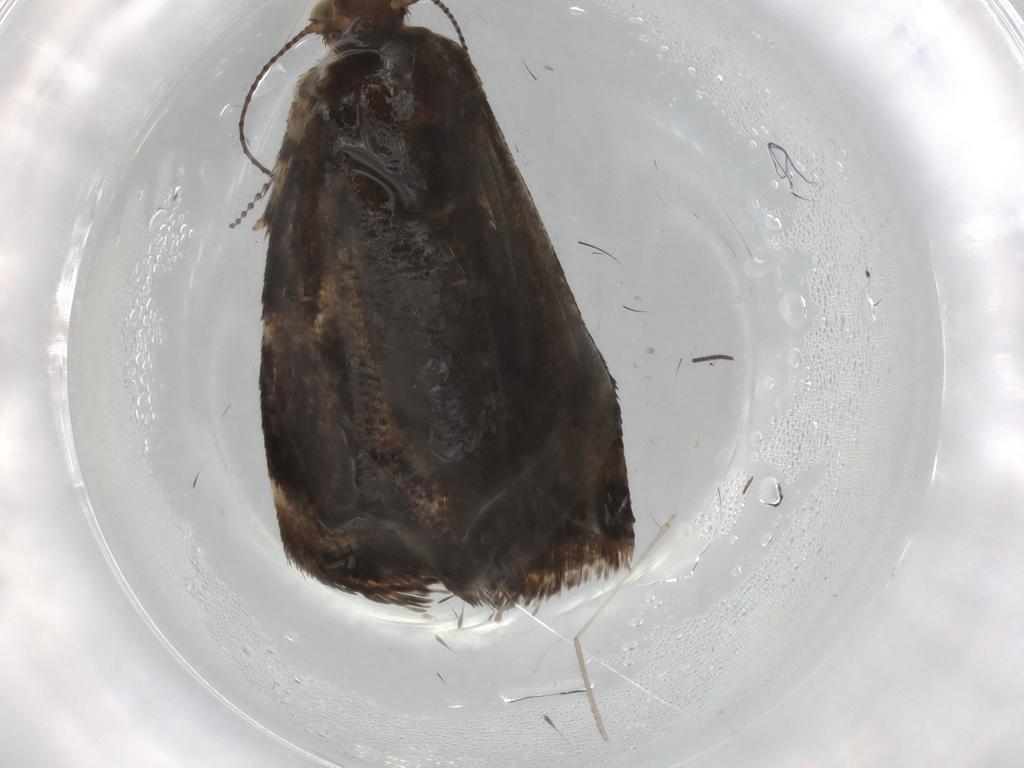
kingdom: Animalia
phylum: Arthropoda
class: Insecta
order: Lepidoptera
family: Choreutidae
